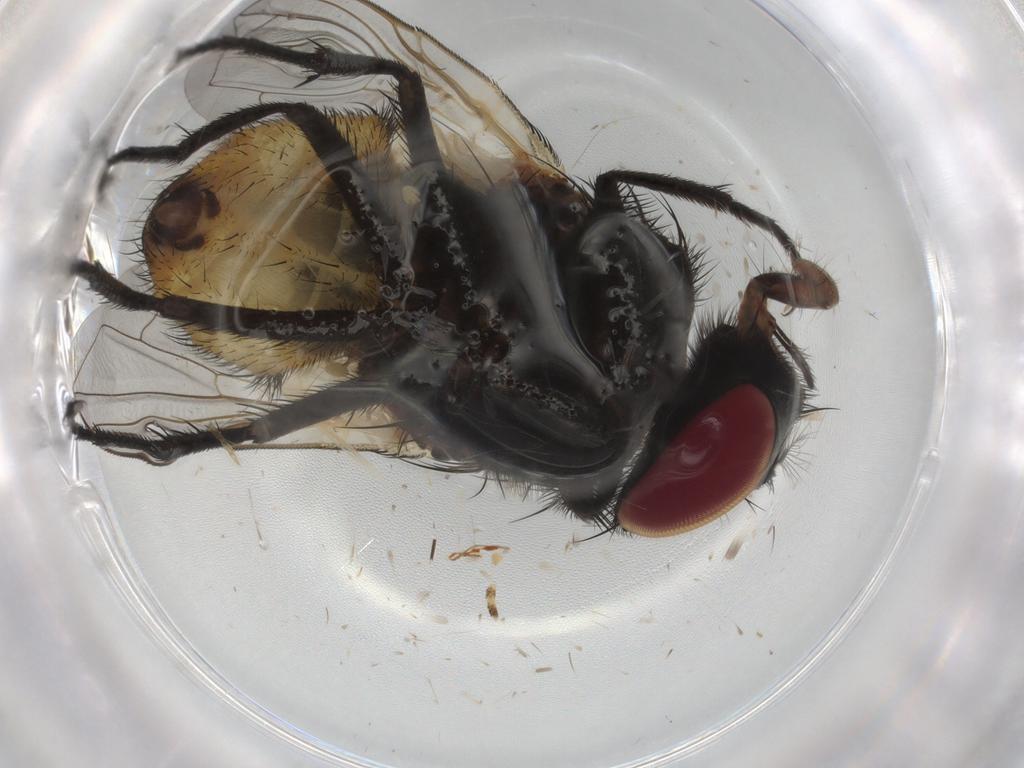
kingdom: Animalia
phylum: Arthropoda
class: Insecta
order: Diptera
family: Muscidae
